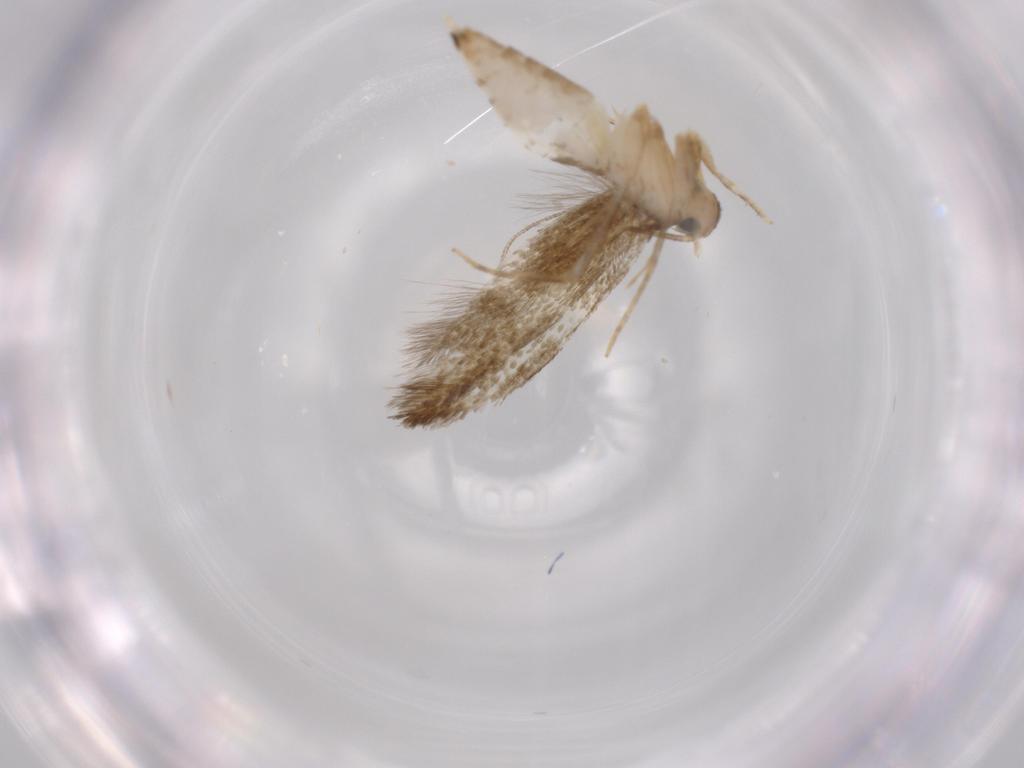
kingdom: Animalia
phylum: Arthropoda
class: Insecta
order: Lepidoptera
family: Tineidae
